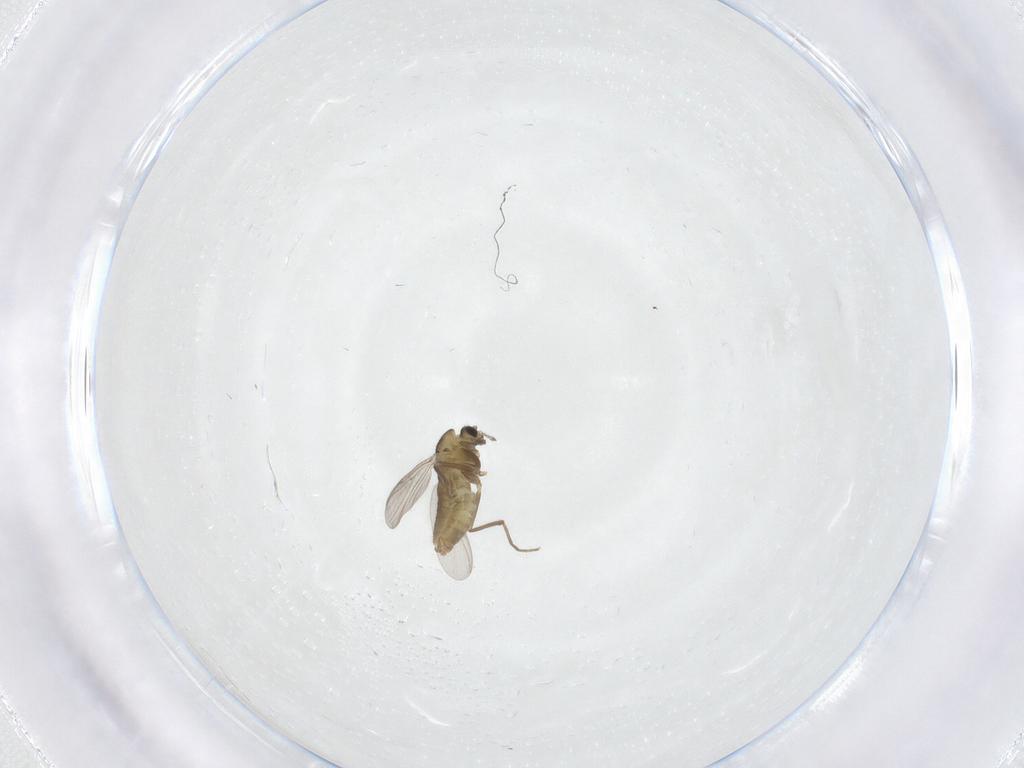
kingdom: Animalia
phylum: Arthropoda
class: Insecta
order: Diptera
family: Chironomidae
